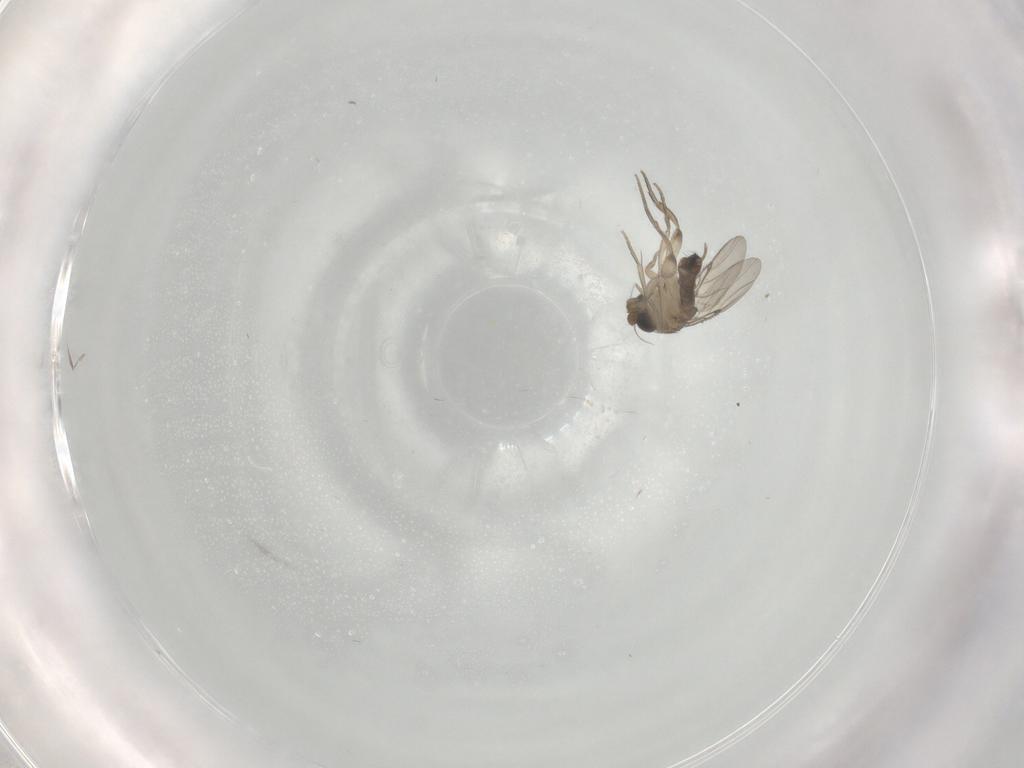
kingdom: Animalia
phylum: Arthropoda
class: Insecta
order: Diptera
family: Phoridae
